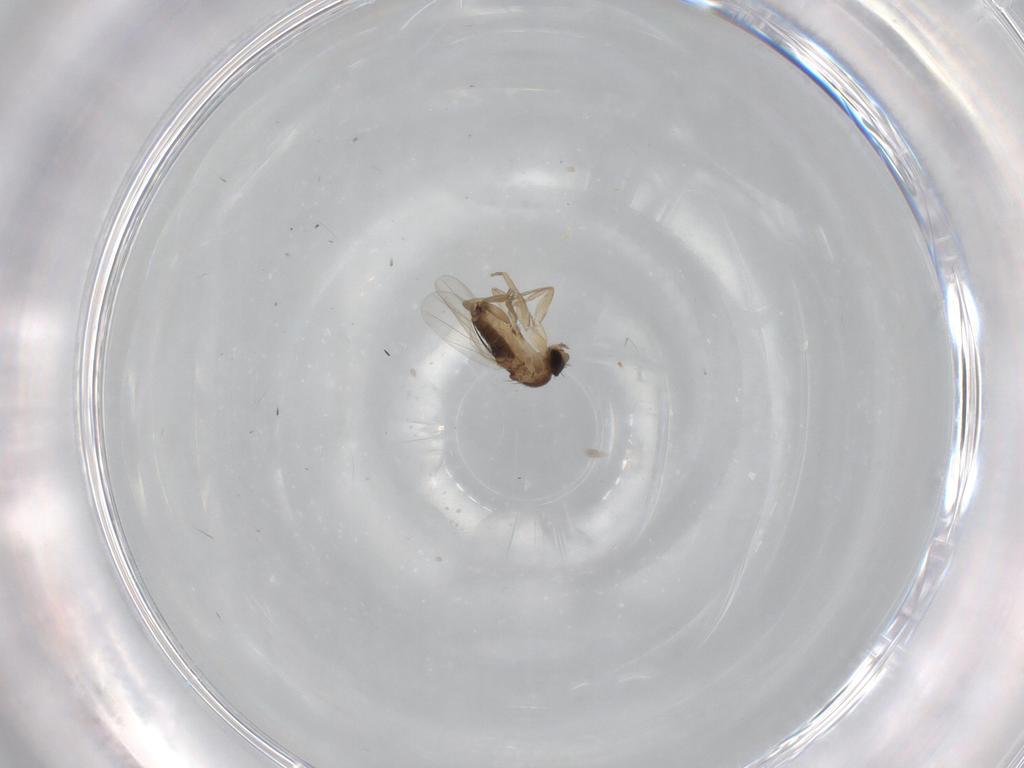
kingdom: Animalia
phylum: Arthropoda
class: Insecta
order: Diptera
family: Phoridae
